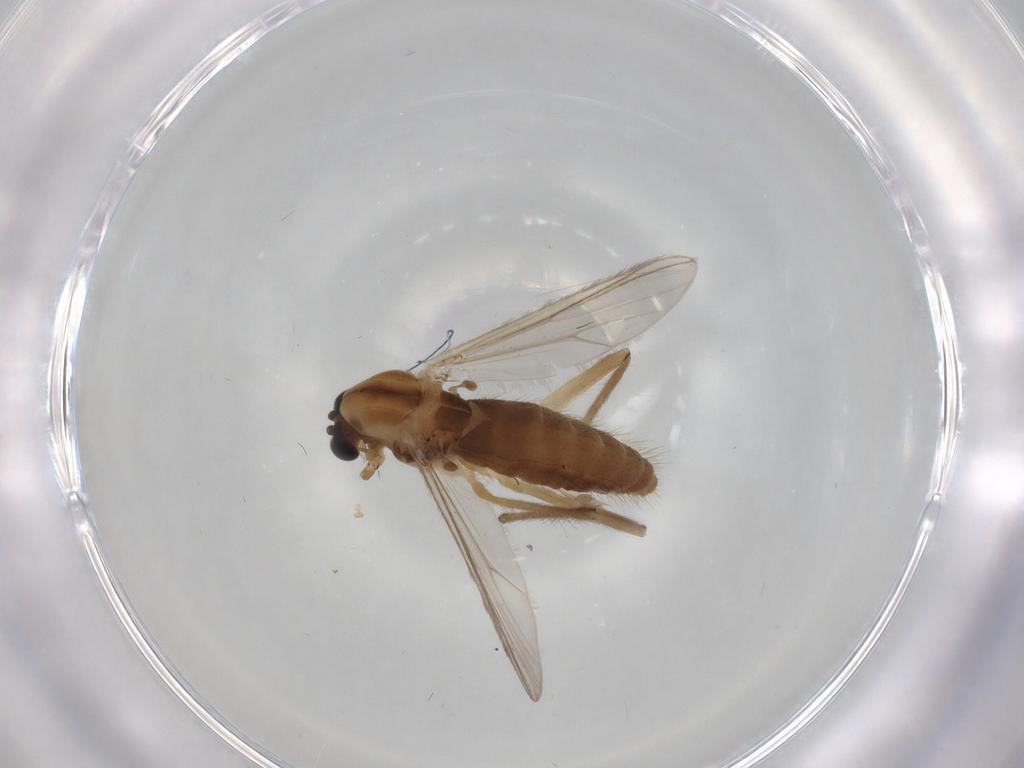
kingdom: Animalia
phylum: Arthropoda
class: Insecta
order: Diptera
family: Chironomidae
